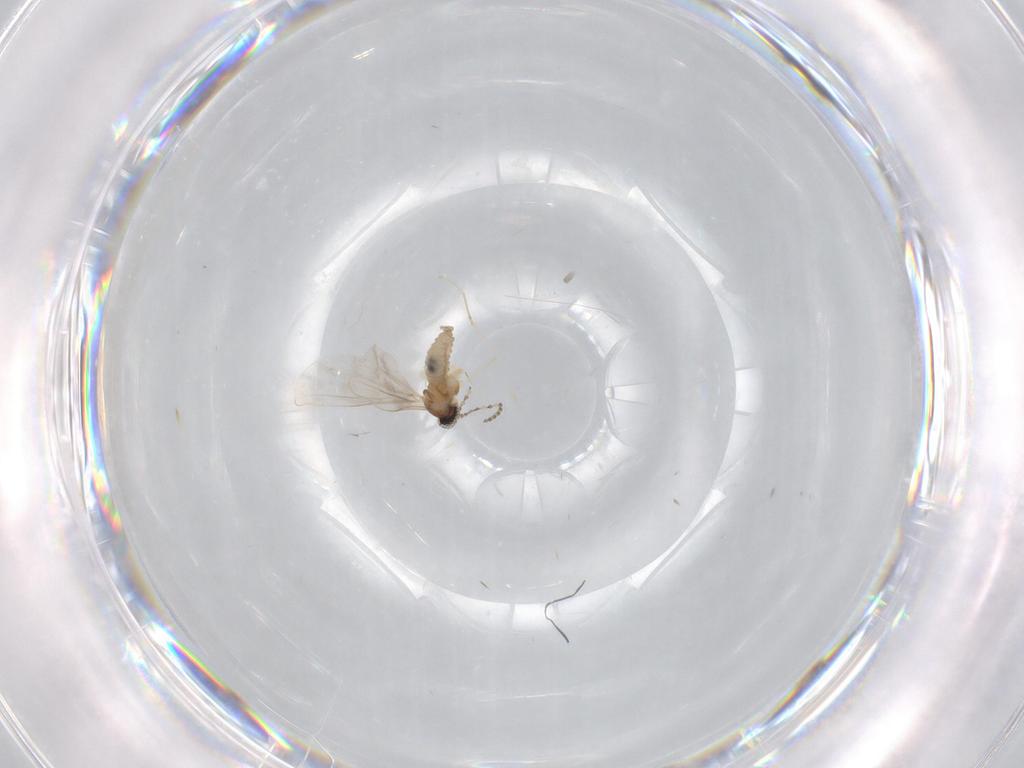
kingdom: Animalia
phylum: Arthropoda
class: Insecta
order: Diptera
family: Cecidomyiidae
